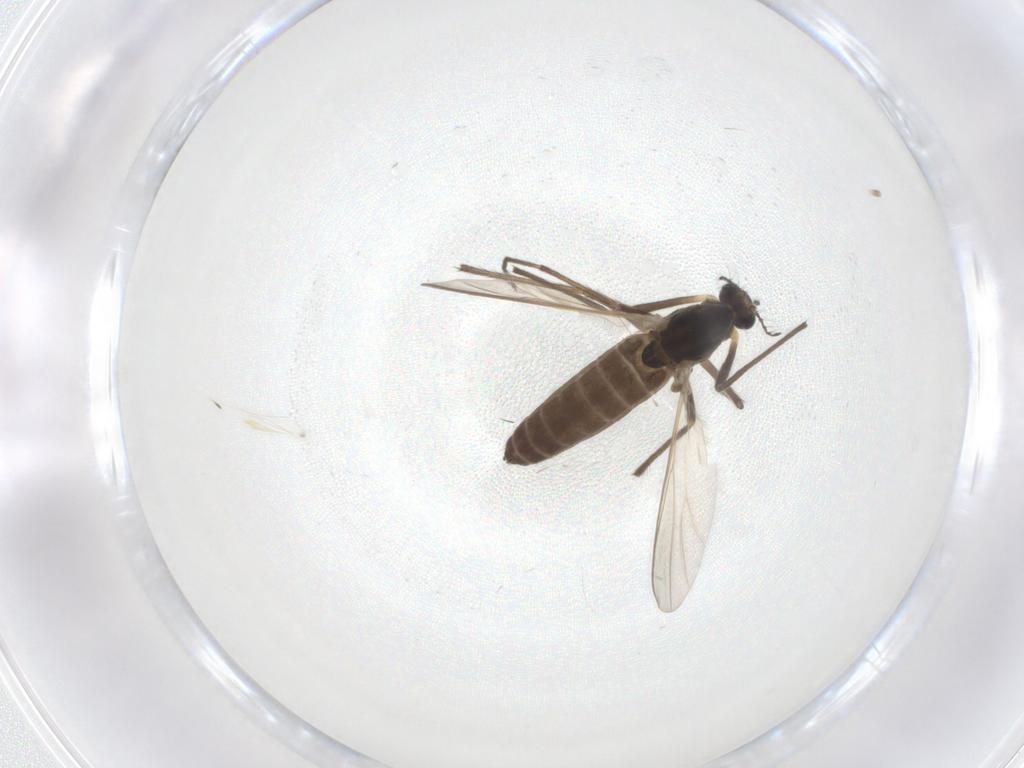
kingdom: Animalia
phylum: Arthropoda
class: Insecta
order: Diptera
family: Chironomidae
